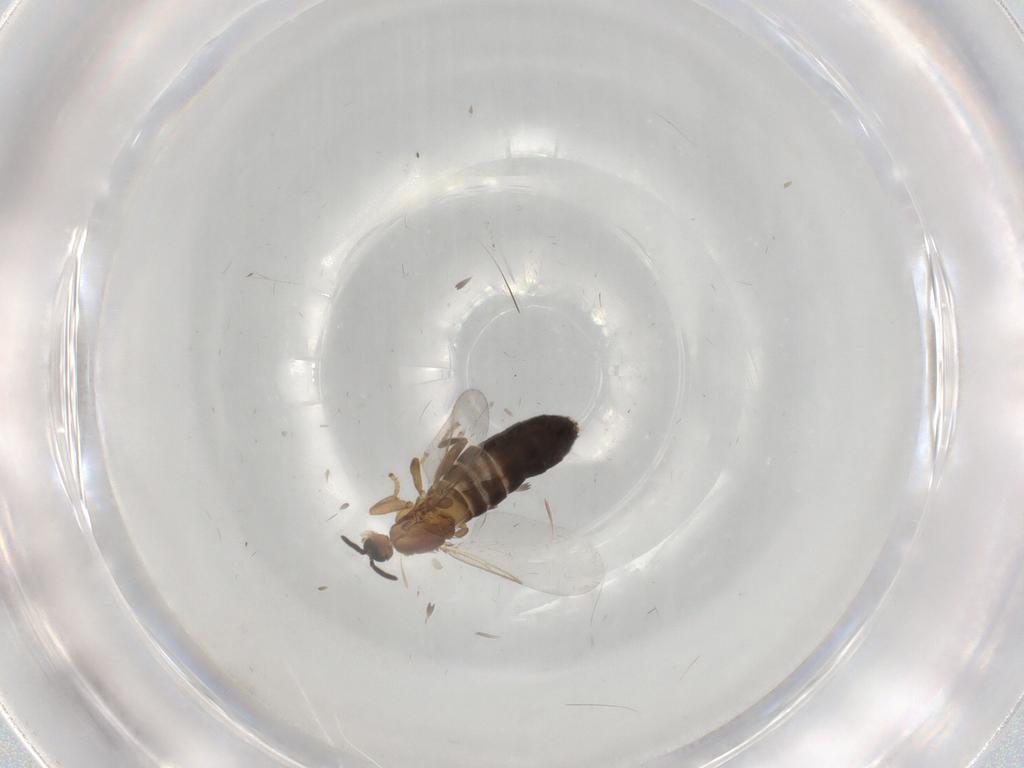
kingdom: Animalia
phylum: Arthropoda
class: Insecta
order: Diptera
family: Scatopsidae
